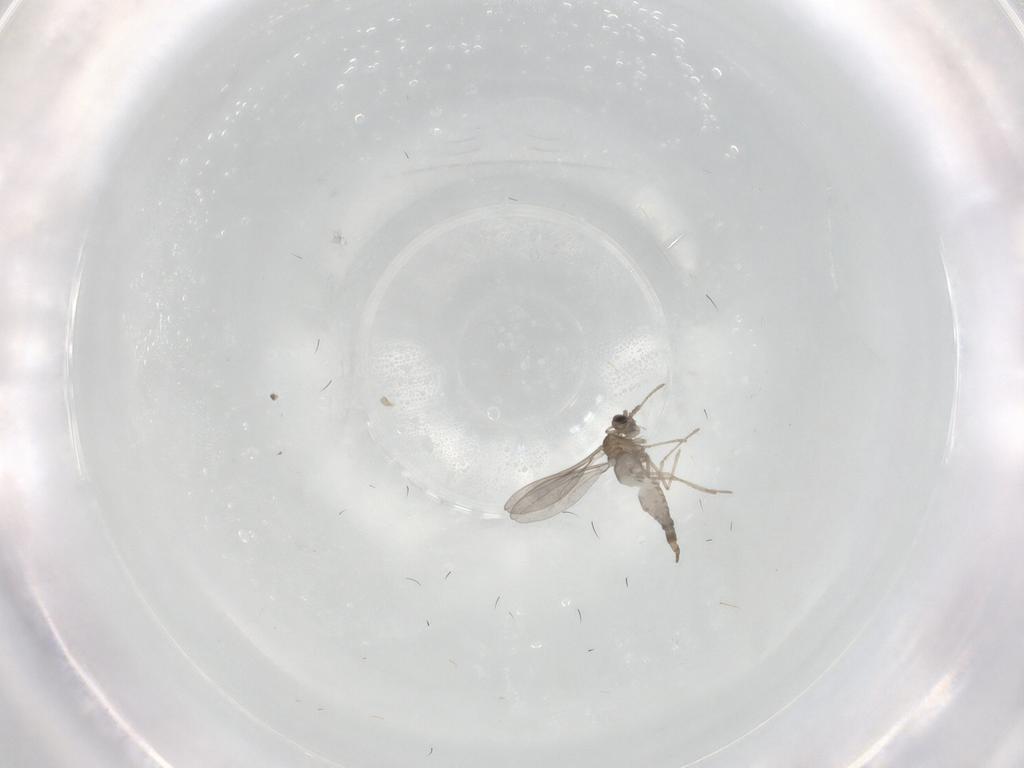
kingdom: Animalia
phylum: Arthropoda
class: Insecta
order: Diptera
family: Cecidomyiidae
